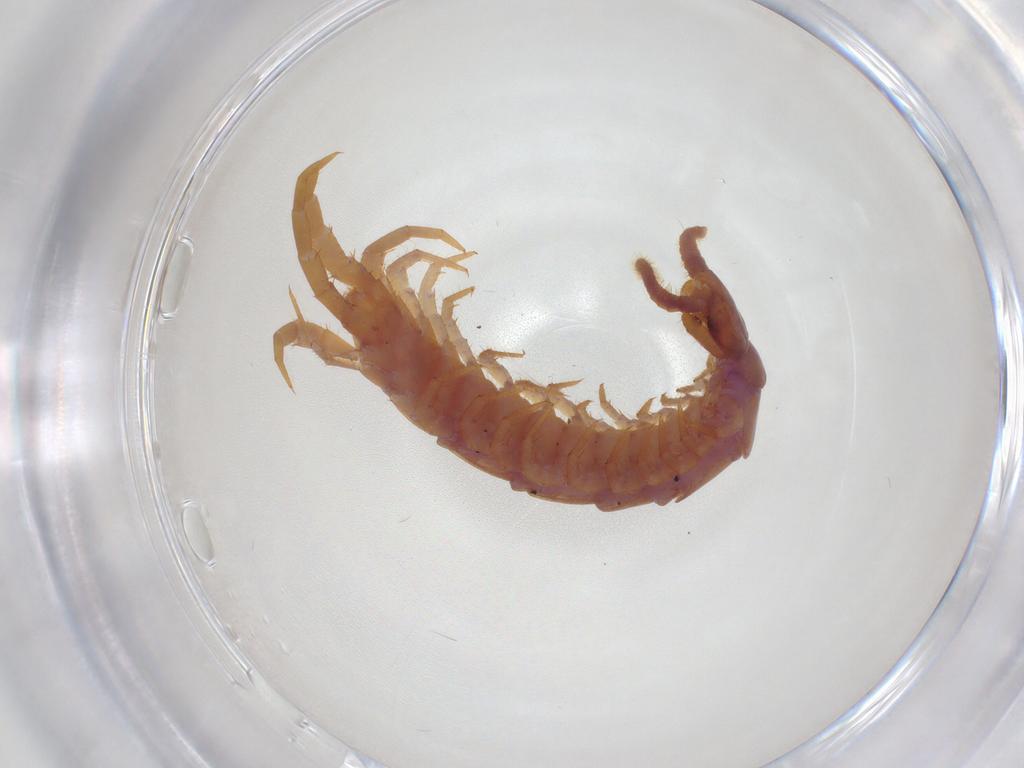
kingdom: Animalia
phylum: Arthropoda
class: Chilopoda
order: Lithobiomorpha
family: Lithobiidae
